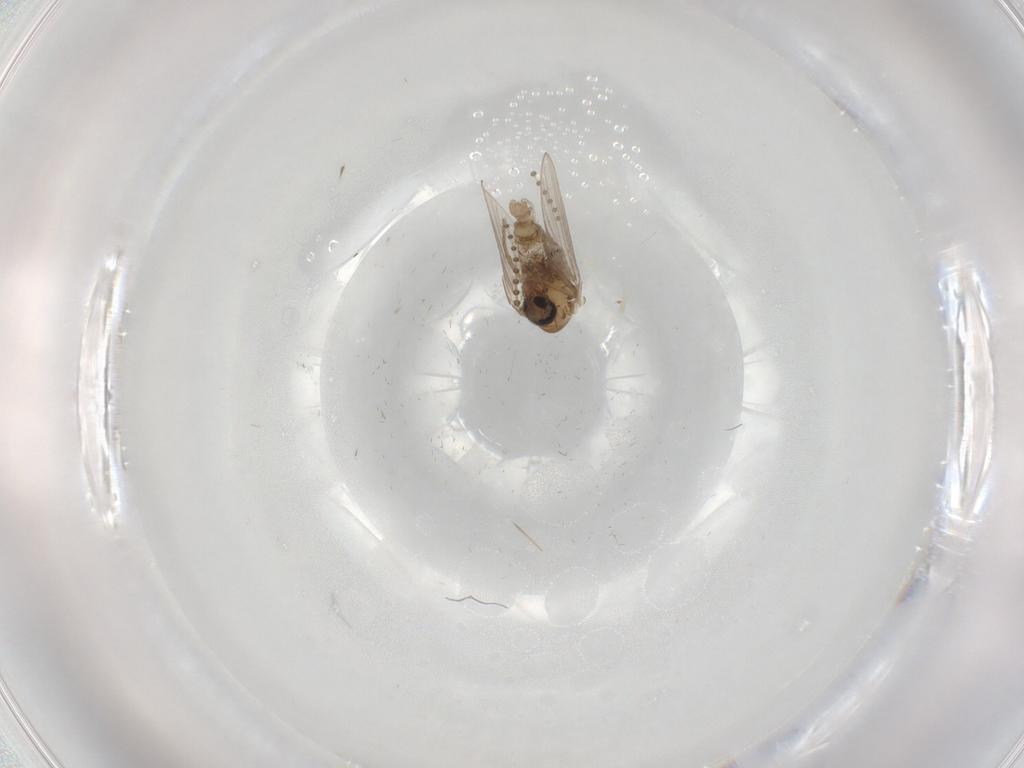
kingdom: Animalia
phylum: Arthropoda
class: Insecta
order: Diptera
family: Psychodidae
